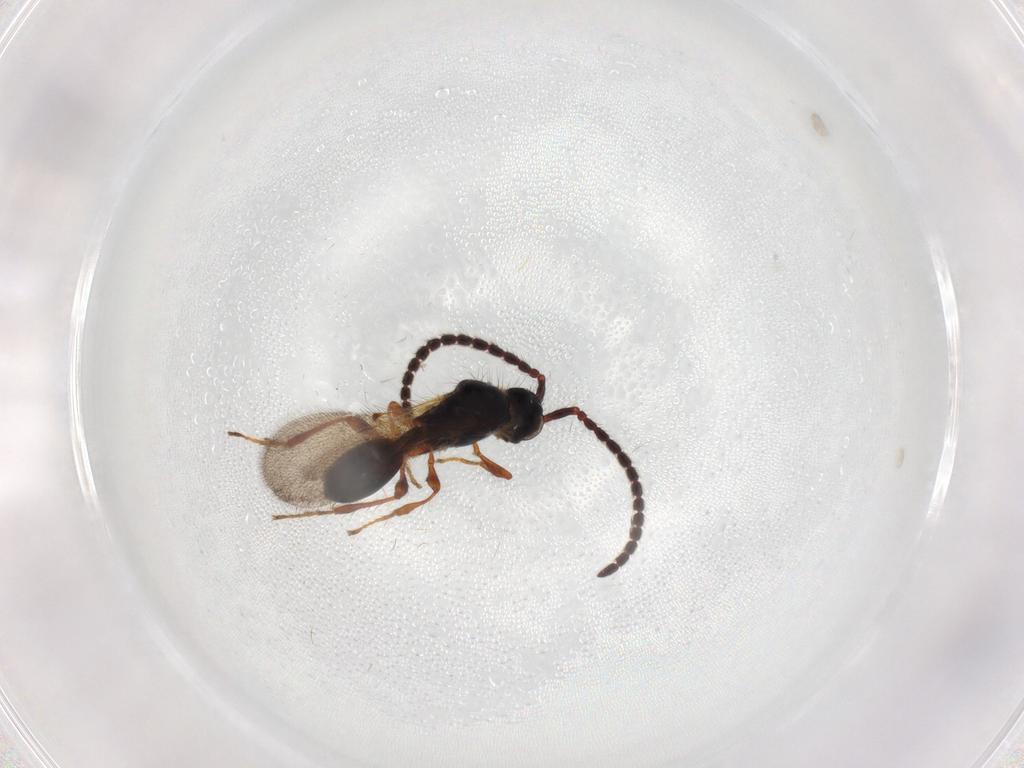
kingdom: Animalia
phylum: Arthropoda
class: Insecta
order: Hymenoptera
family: Diapriidae
